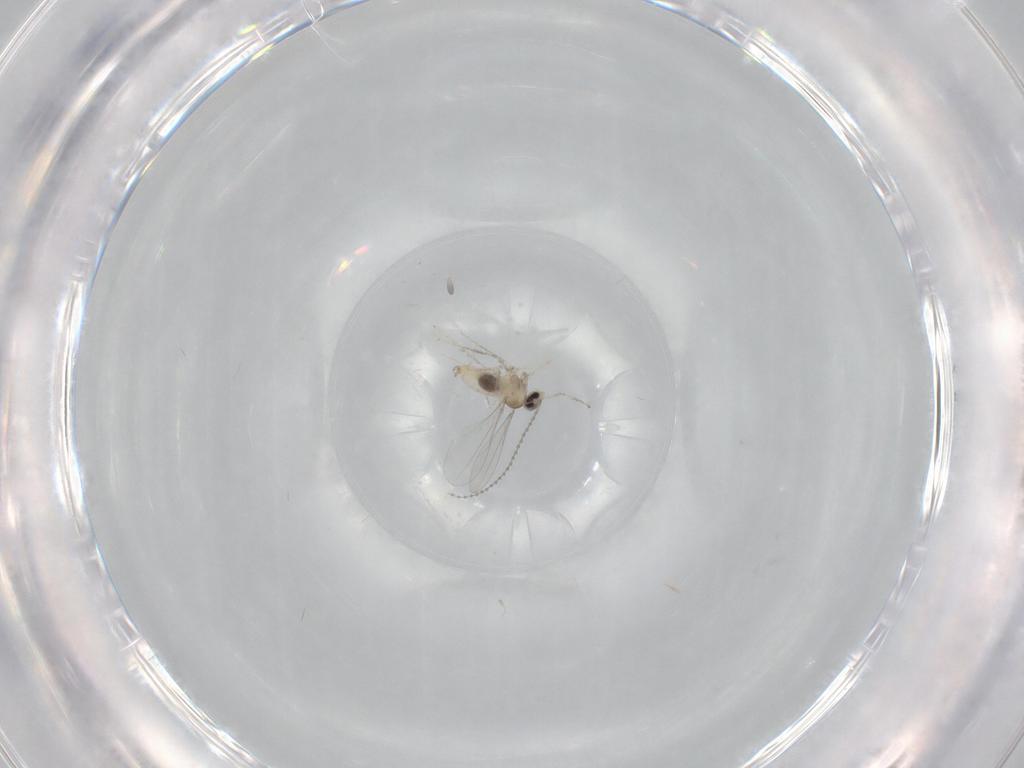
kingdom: Animalia
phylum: Arthropoda
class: Insecta
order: Diptera
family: Cecidomyiidae
